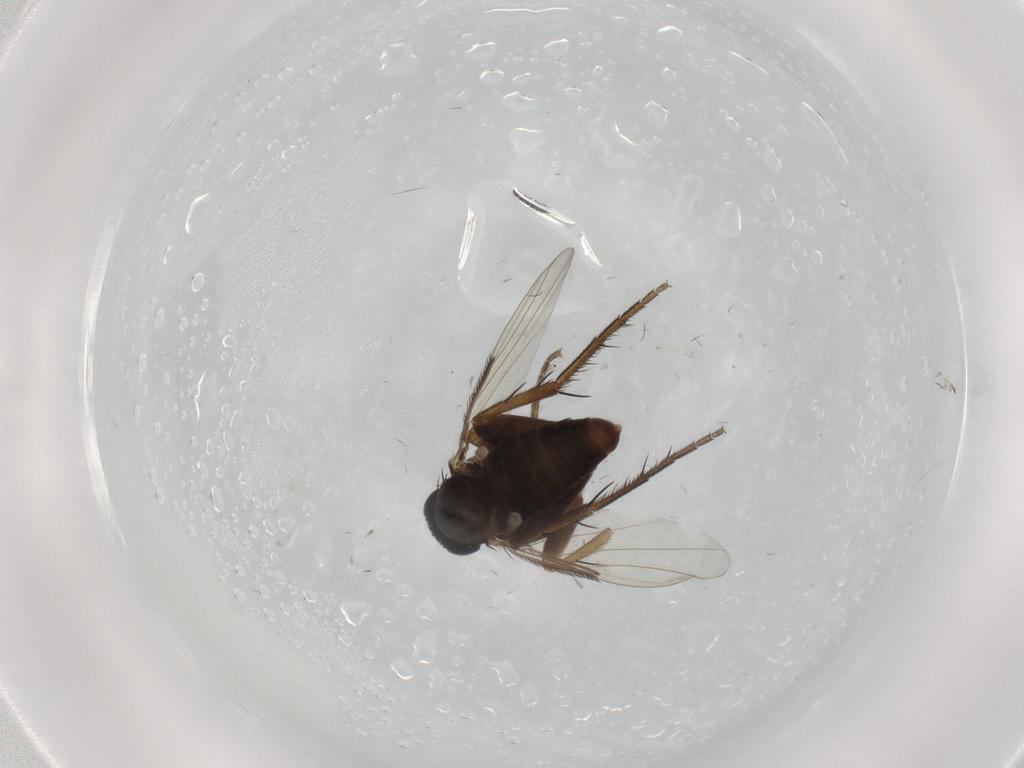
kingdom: Animalia
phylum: Arthropoda
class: Insecta
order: Diptera
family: Phoridae
